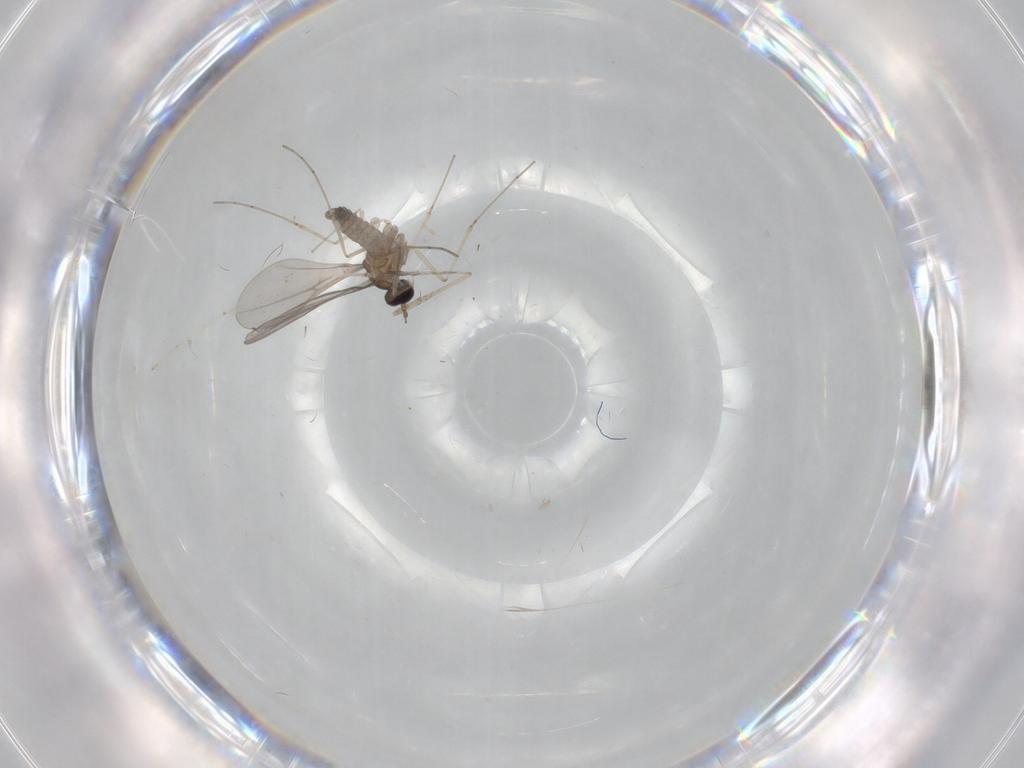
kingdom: Animalia
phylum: Arthropoda
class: Insecta
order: Diptera
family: Cecidomyiidae
